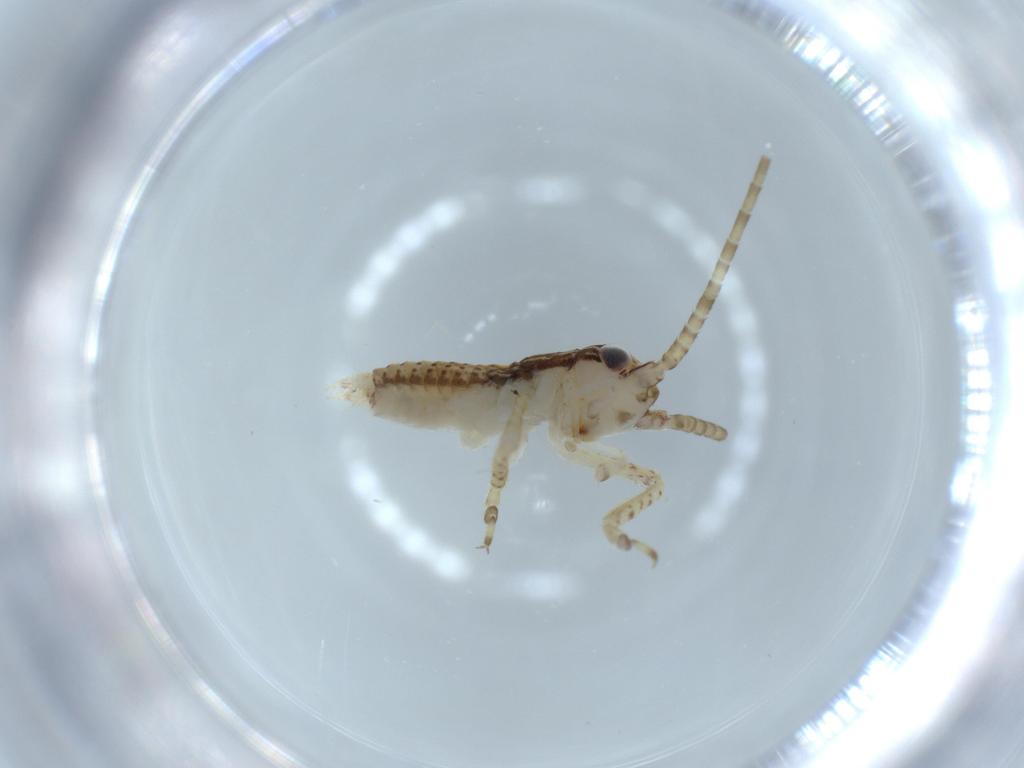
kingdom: Animalia
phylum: Arthropoda
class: Insecta
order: Orthoptera
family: Gryllidae
